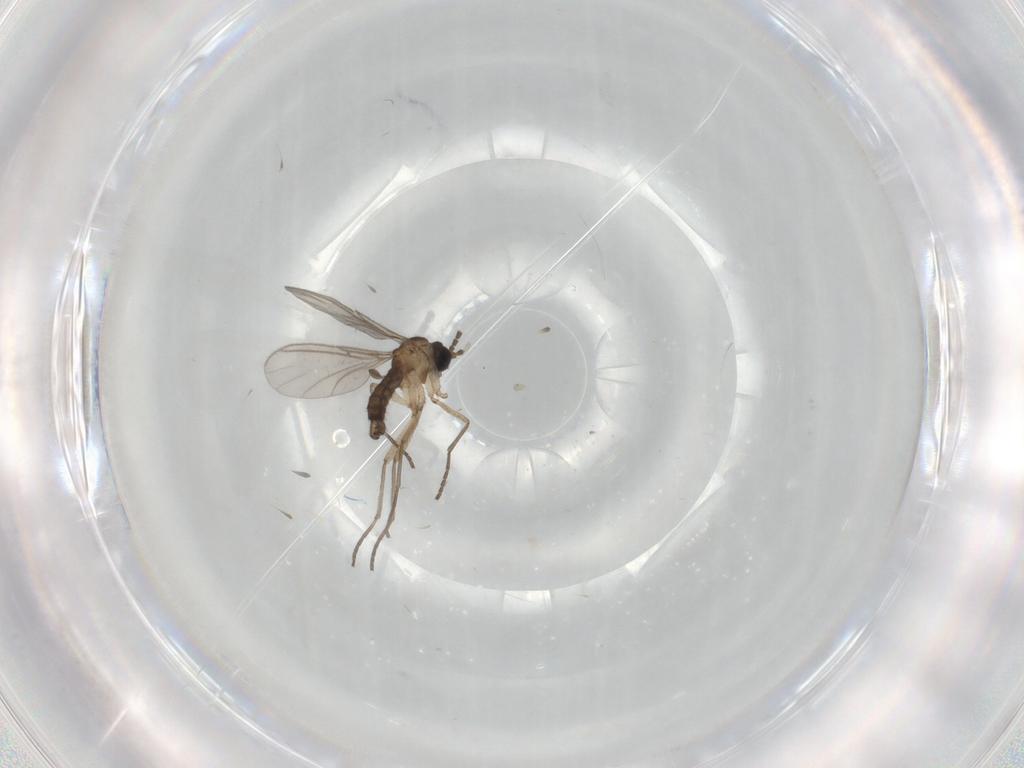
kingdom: Animalia
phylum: Arthropoda
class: Insecta
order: Diptera
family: Sciaridae
